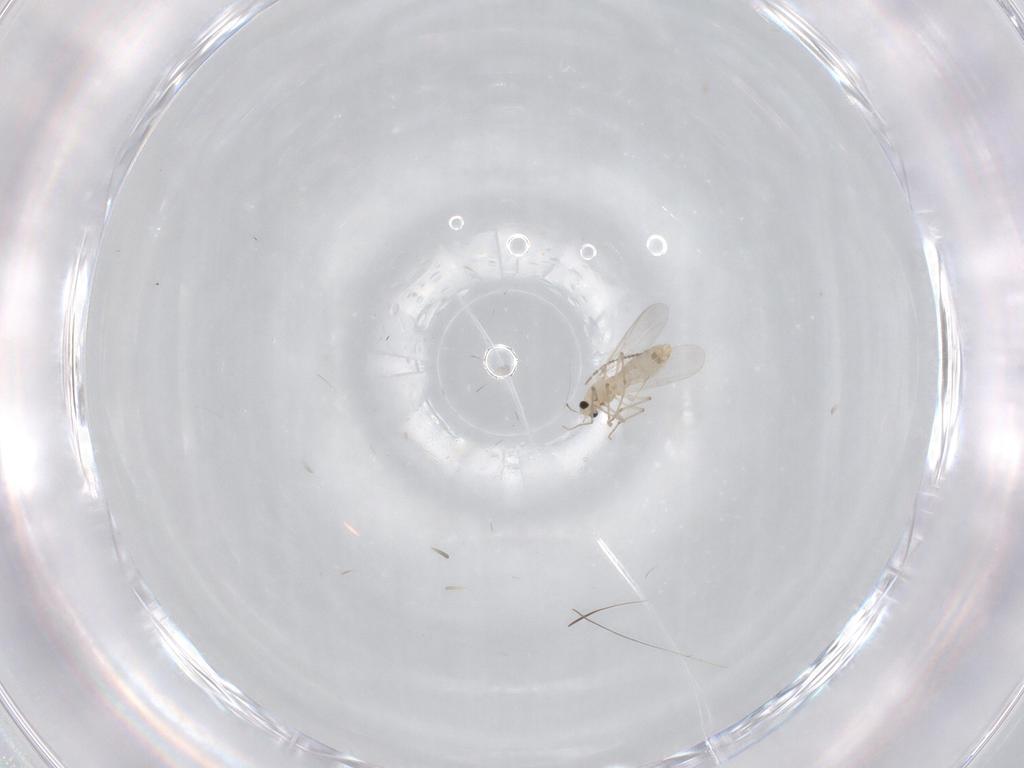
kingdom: Animalia
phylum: Arthropoda
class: Insecta
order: Diptera
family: Chironomidae
